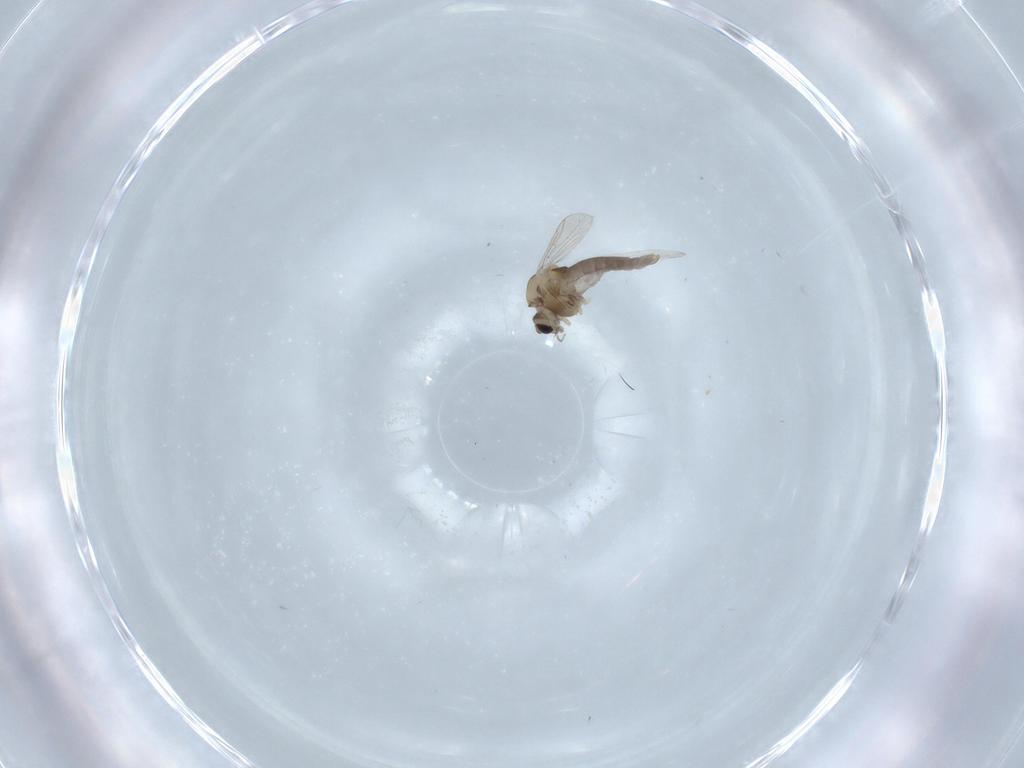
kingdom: Animalia
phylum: Arthropoda
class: Insecta
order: Diptera
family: Chironomidae
